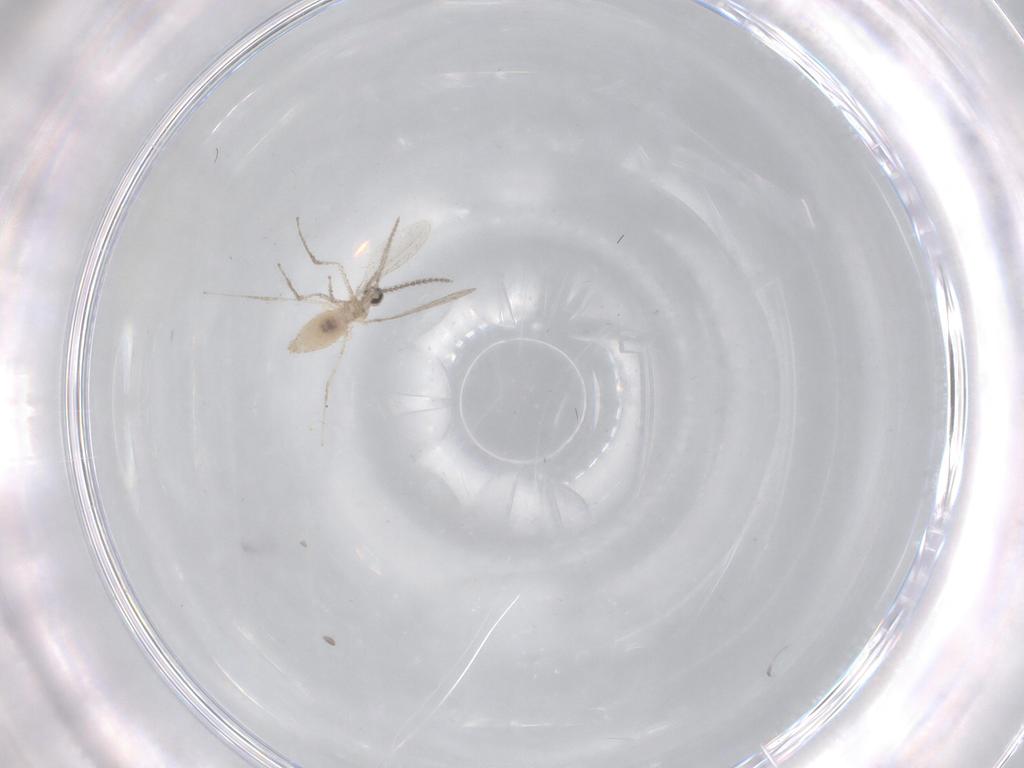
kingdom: Animalia
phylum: Arthropoda
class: Insecta
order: Diptera
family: Cecidomyiidae
